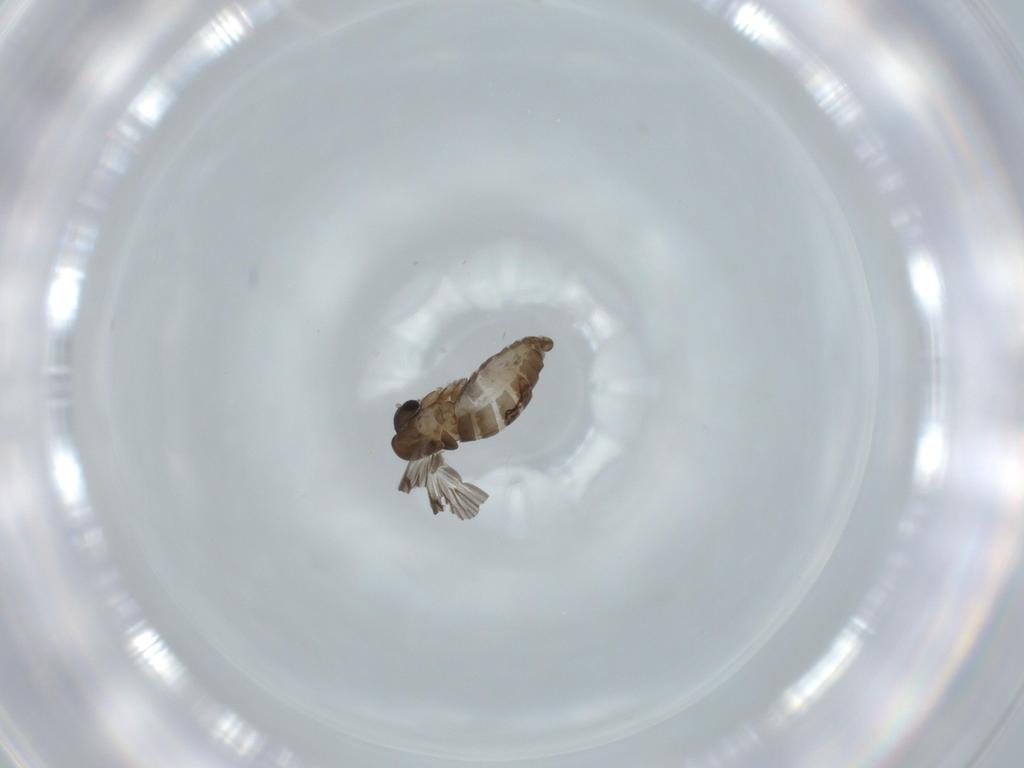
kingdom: Animalia
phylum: Arthropoda
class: Insecta
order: Diptera
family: Psychodidae
